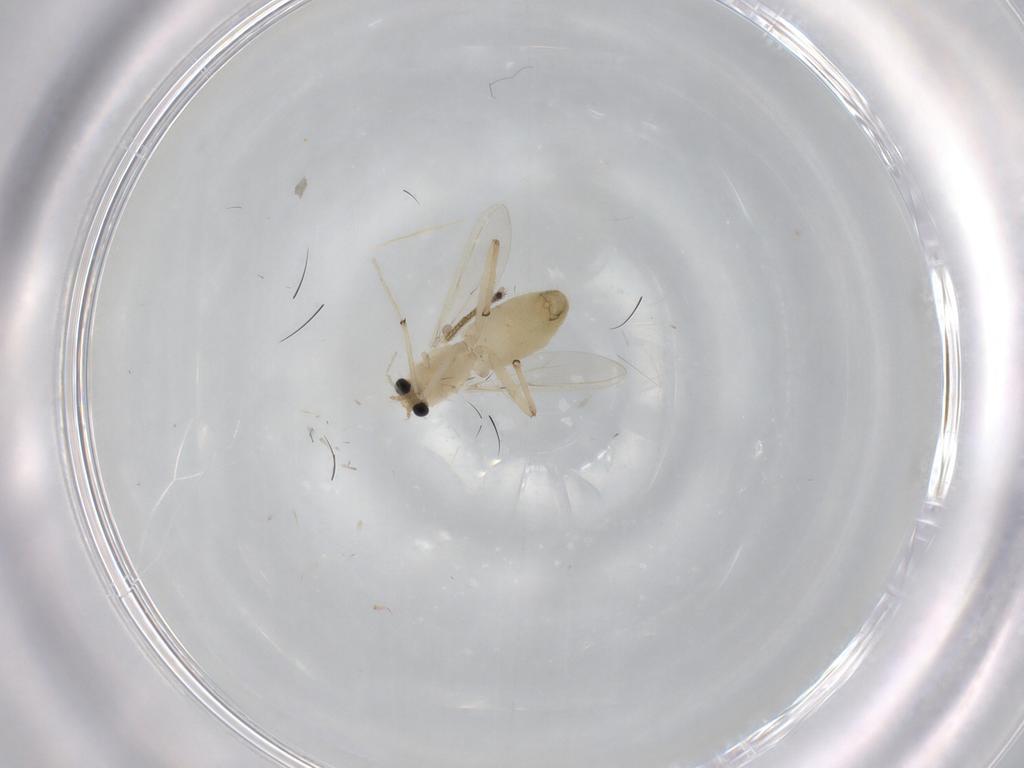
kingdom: Animalia
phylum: Arthropoda
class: Insecta
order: Diptera
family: Chironomidae
